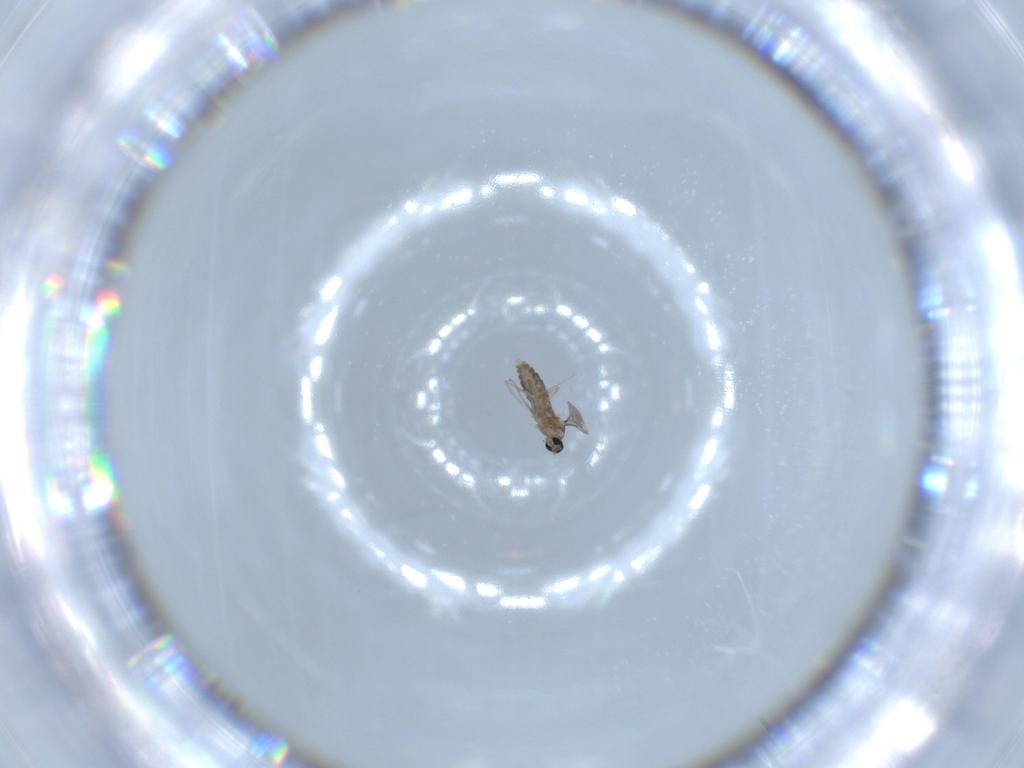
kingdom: Animalia
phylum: Arthropoda
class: Insecta
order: Diptera
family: Cecidomyiidae
